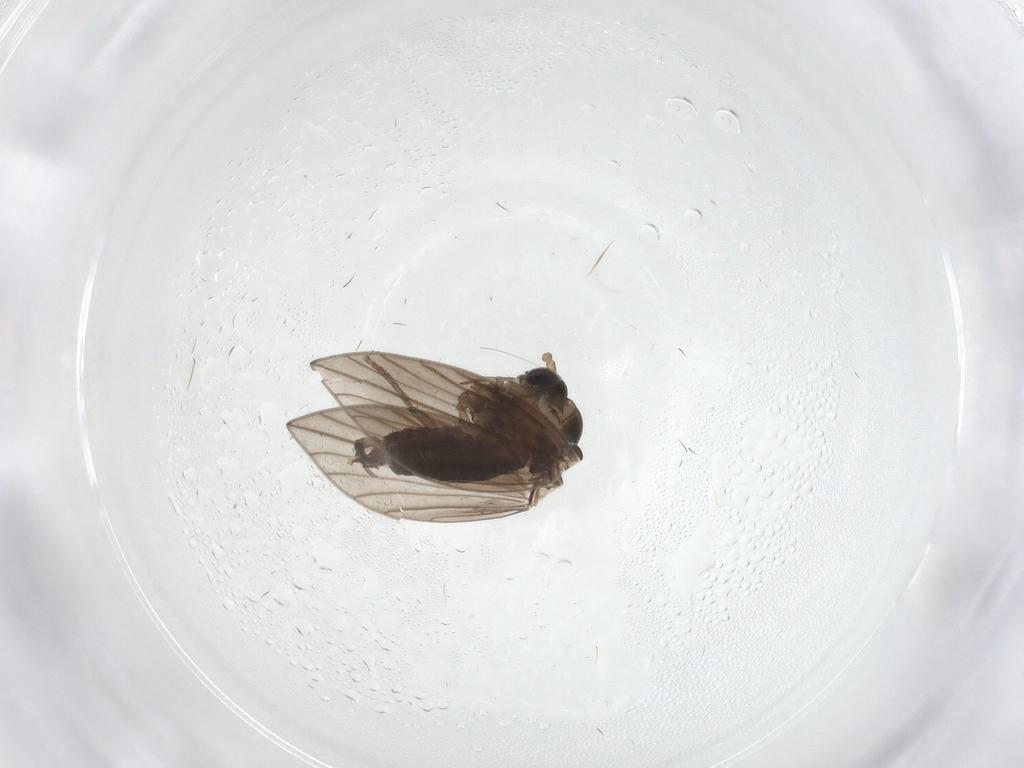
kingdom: Animalia
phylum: Arthropoda
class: Insecta
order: Diptera
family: Psychodidae
